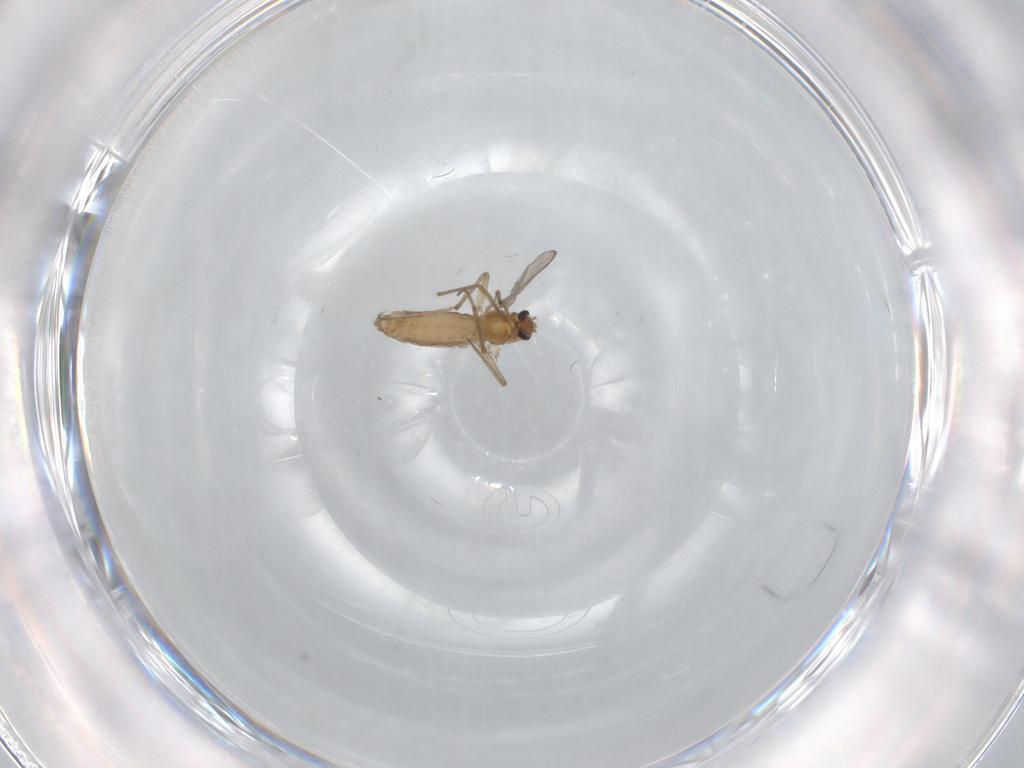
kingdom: Animalia
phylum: Arthropoda
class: Insecta
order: Diptera
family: Chironomidae
